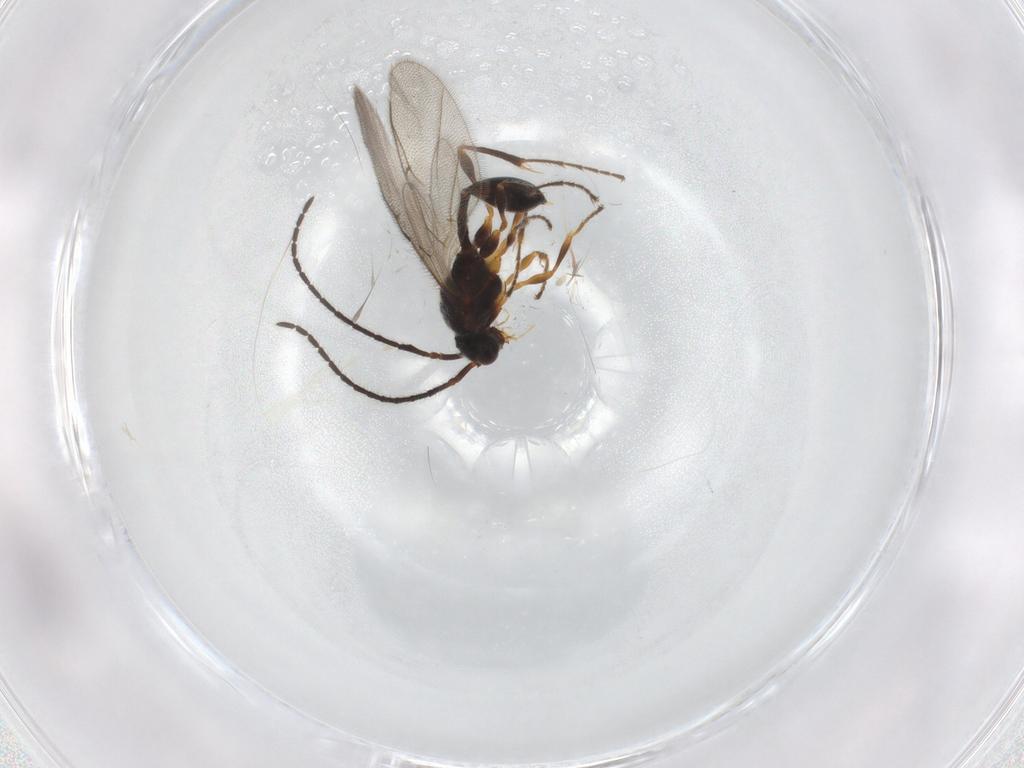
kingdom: Animalia
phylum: Arthropoda
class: Insecta
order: Hymenoptera
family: Diapriidae
